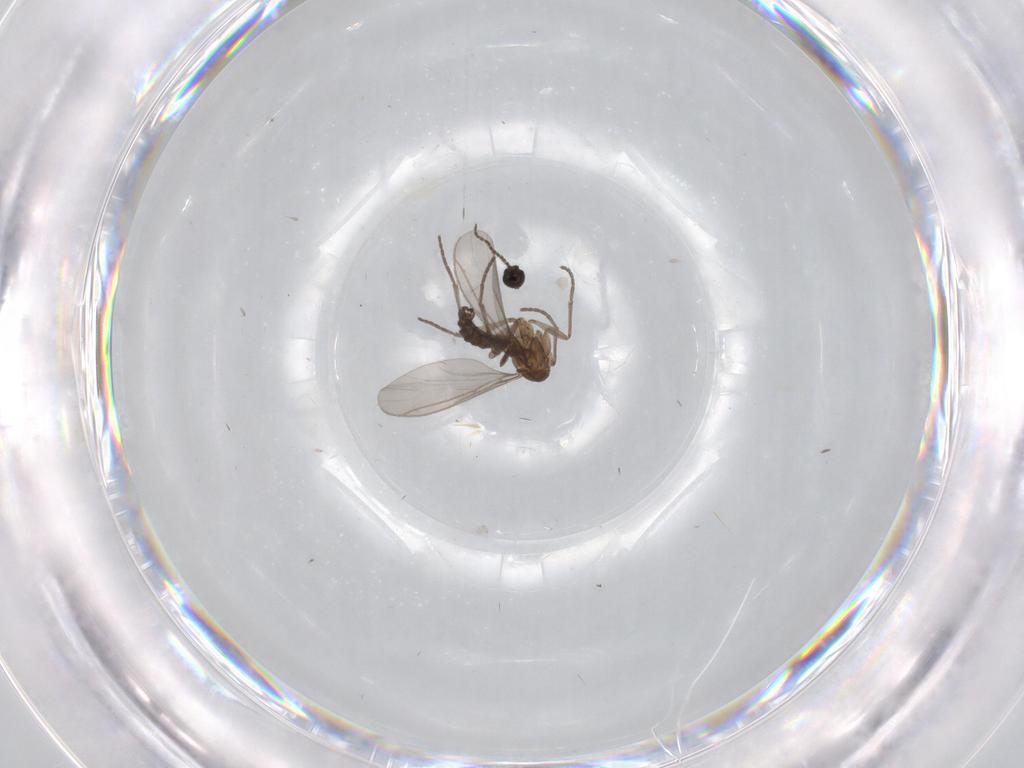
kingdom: Animalia
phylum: Arthropoda
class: Insecta
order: Diptera
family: Sciaridae
